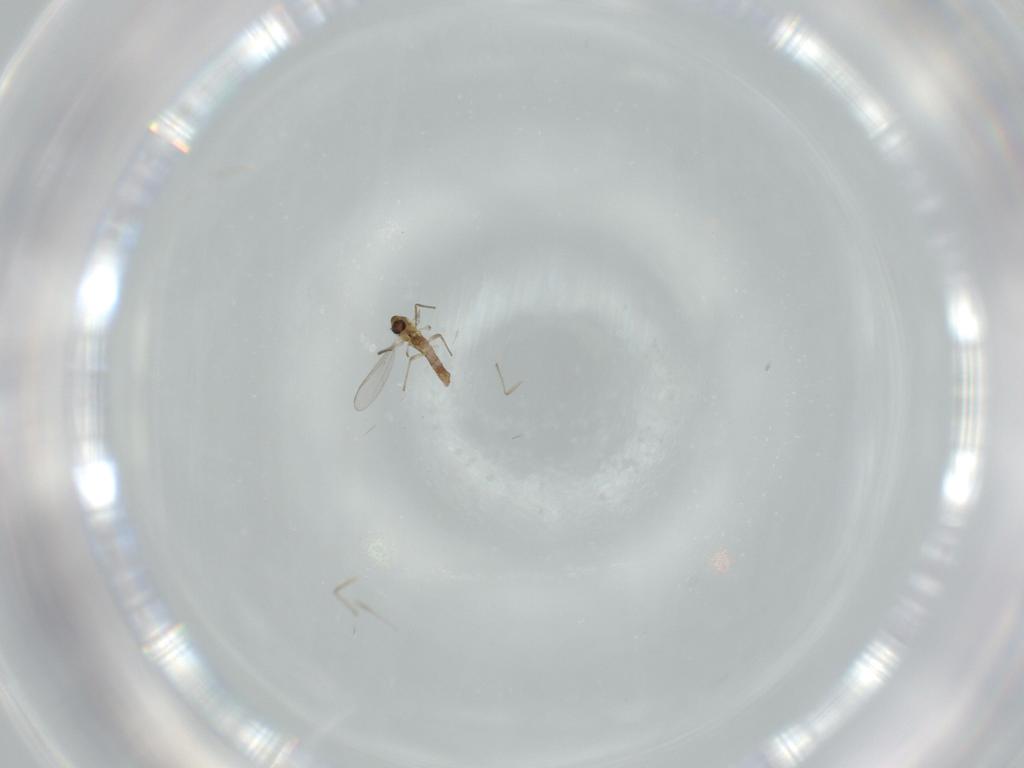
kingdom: Animalia
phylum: Arthropoda
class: Insecta
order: Diptera
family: Chironomidae
